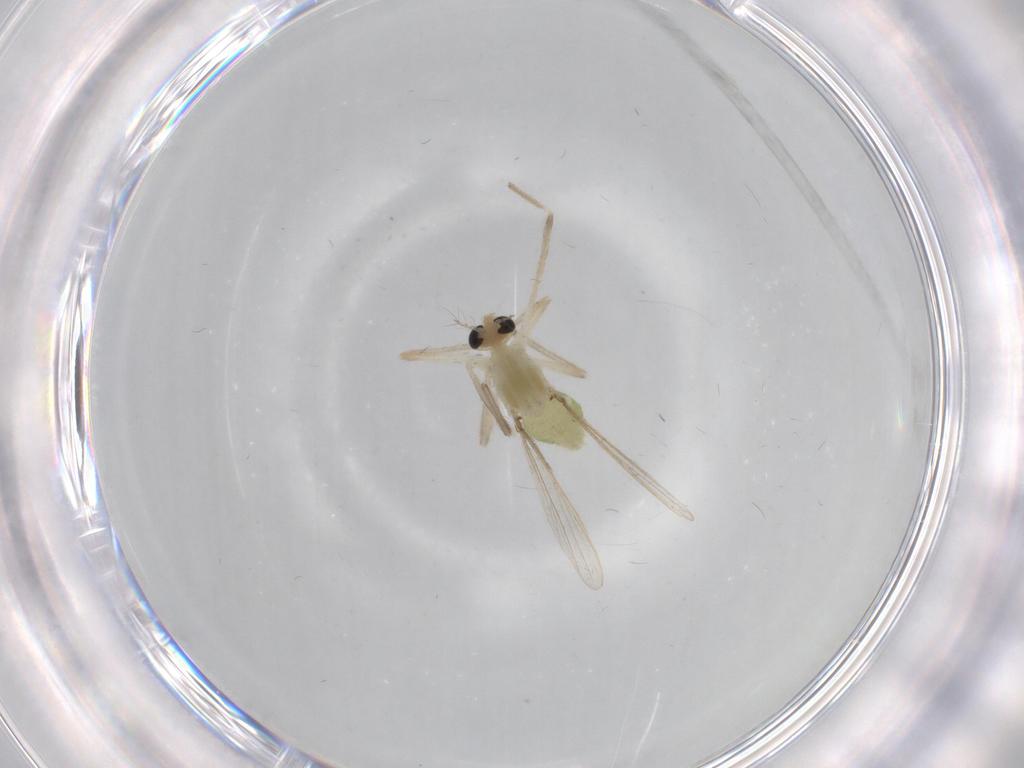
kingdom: Animalia
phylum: Arthropoda
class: Insecta
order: Diptera
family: Chironomidae
